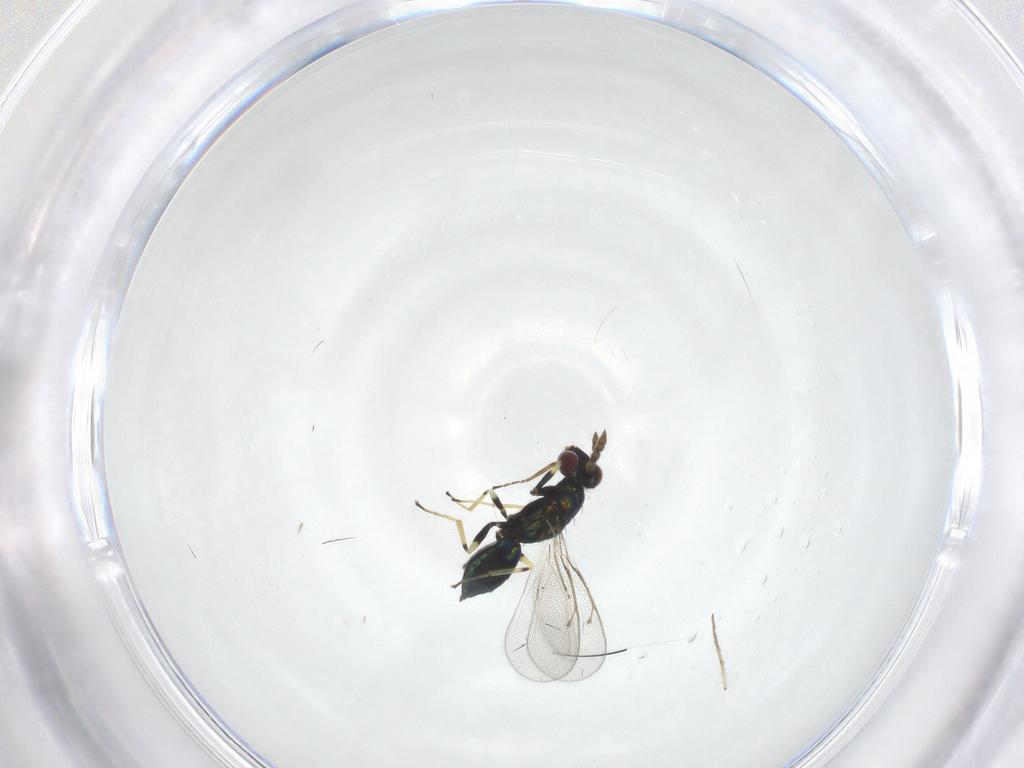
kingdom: Animalia
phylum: Arthropoda
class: Insecta
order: Hymenoptera
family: Eulophidae
